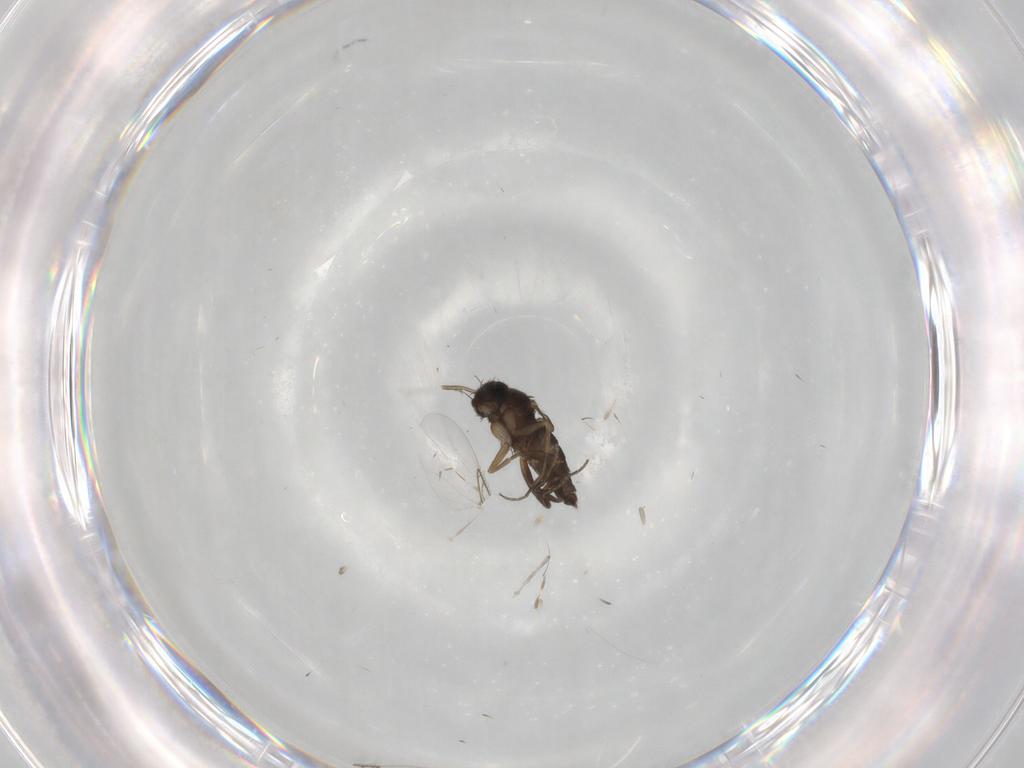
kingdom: Animalia
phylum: Arthropoda
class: Insecta
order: Diptera
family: Phoridae
